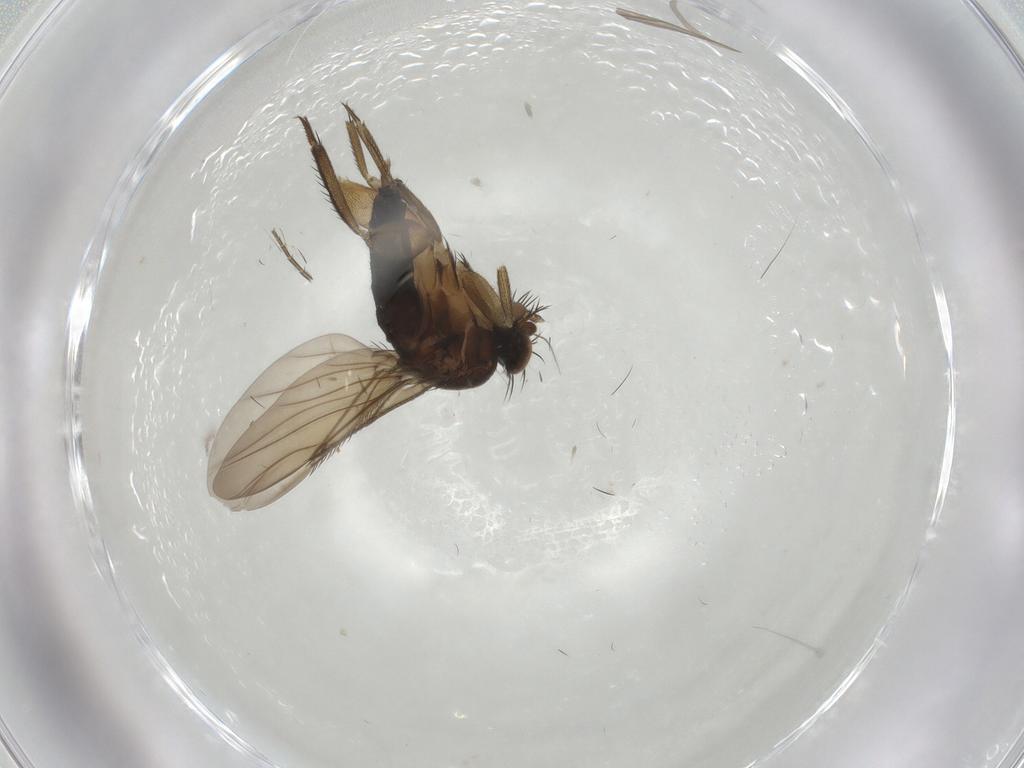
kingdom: Animalia
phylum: Arthropoda
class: Insecta
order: Diptera
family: Phoridae
